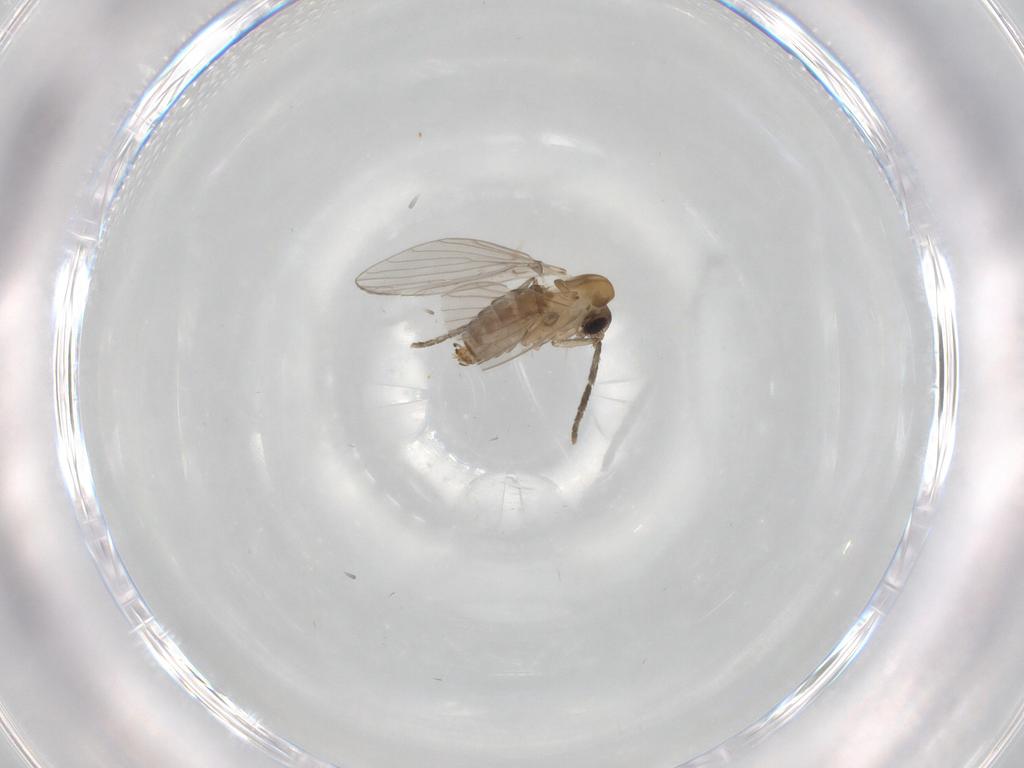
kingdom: Animalia
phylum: Arthropoda
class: Insecta
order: Diptera
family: Psychodidae
